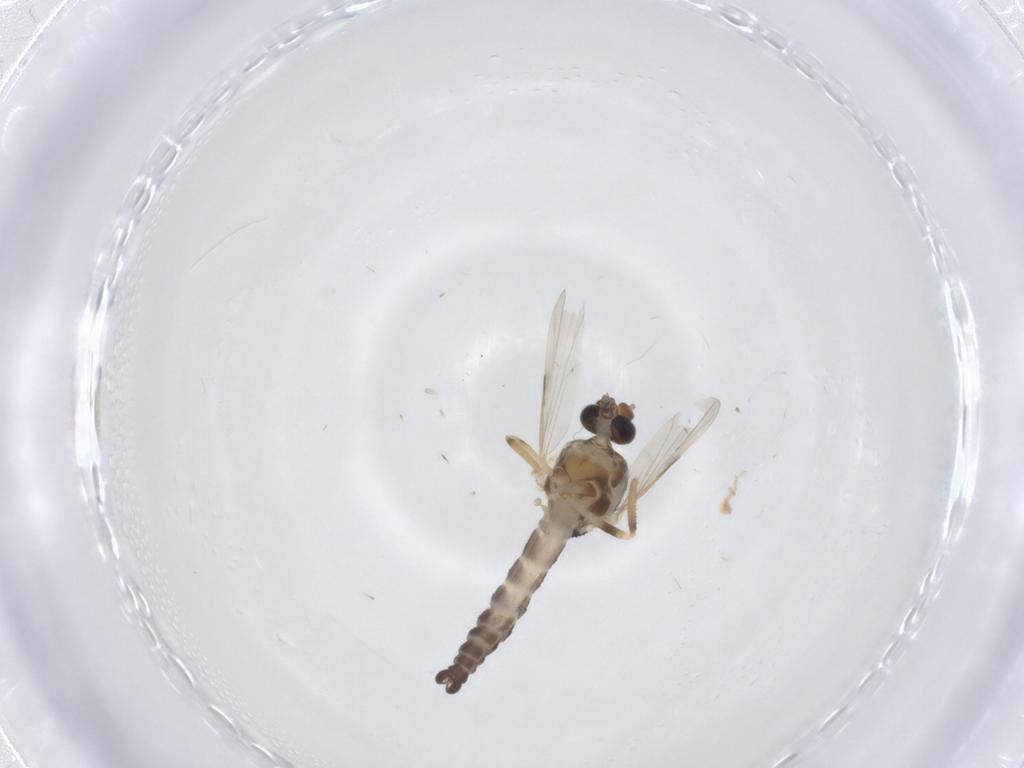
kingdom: Animalia
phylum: Arthropoda
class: Insecta
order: Diptera
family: Ceratopogonidae
